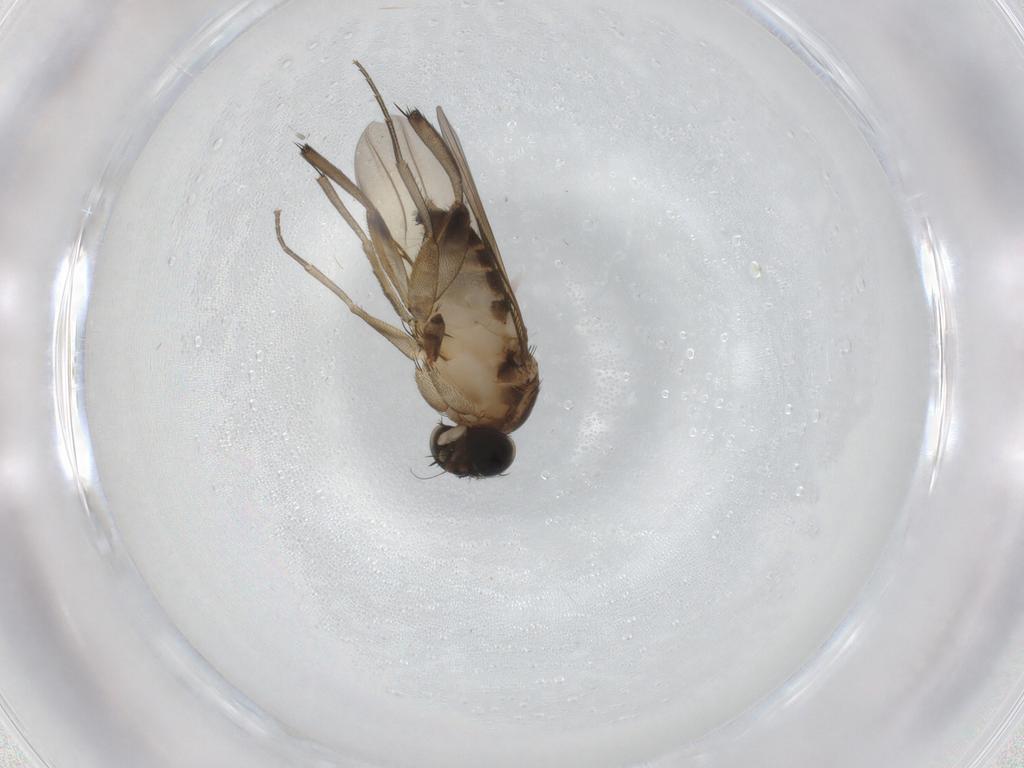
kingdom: Animalia
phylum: Arthropoda
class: Insecta
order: Diptera
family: Phoridae
